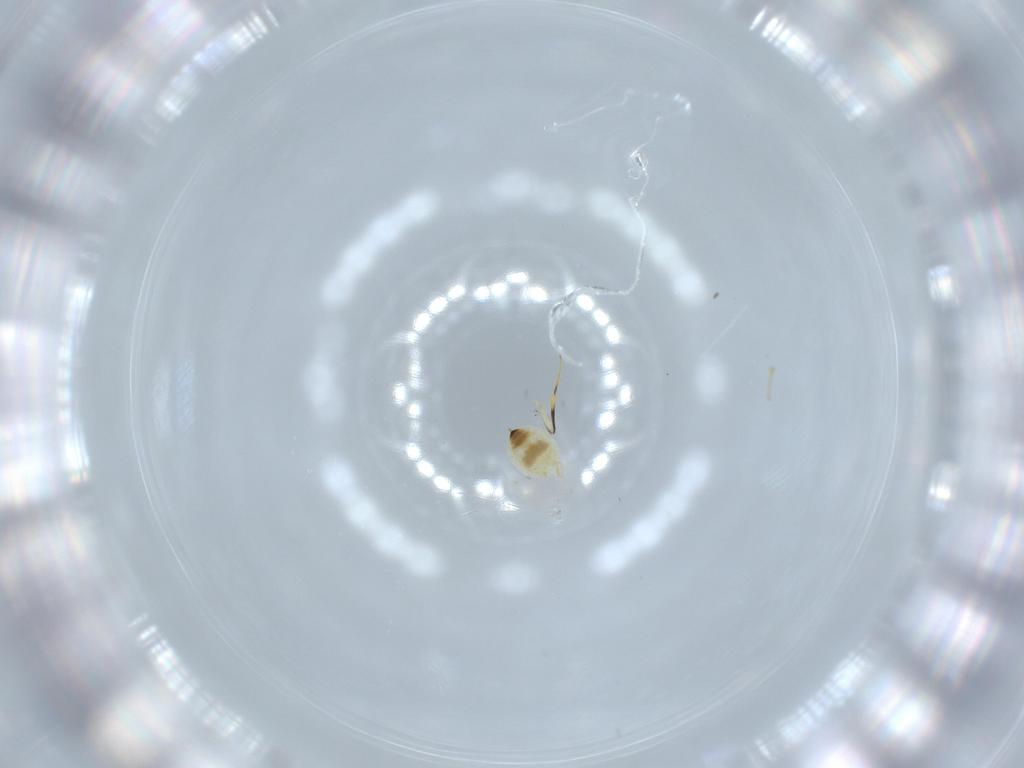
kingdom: Animalia
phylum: Arthropoda
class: Arachnida
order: Araneae
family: Pholcidae
